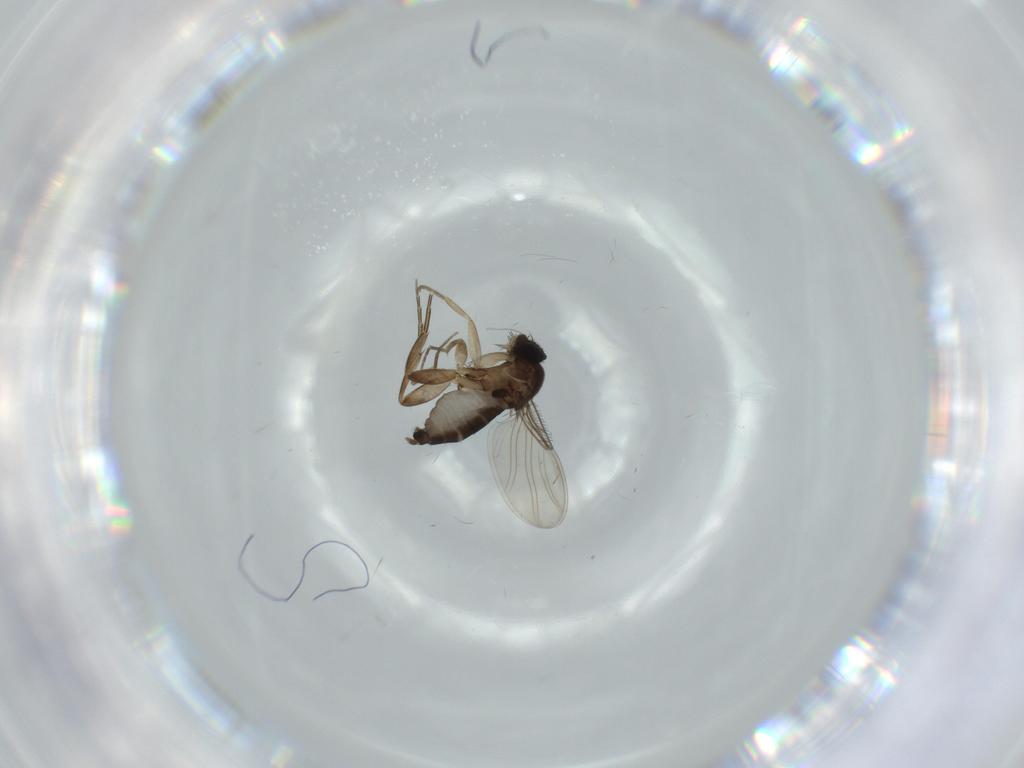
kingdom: Animalia
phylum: Arthropoda
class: Insecta
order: Diptera
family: Phoridae
